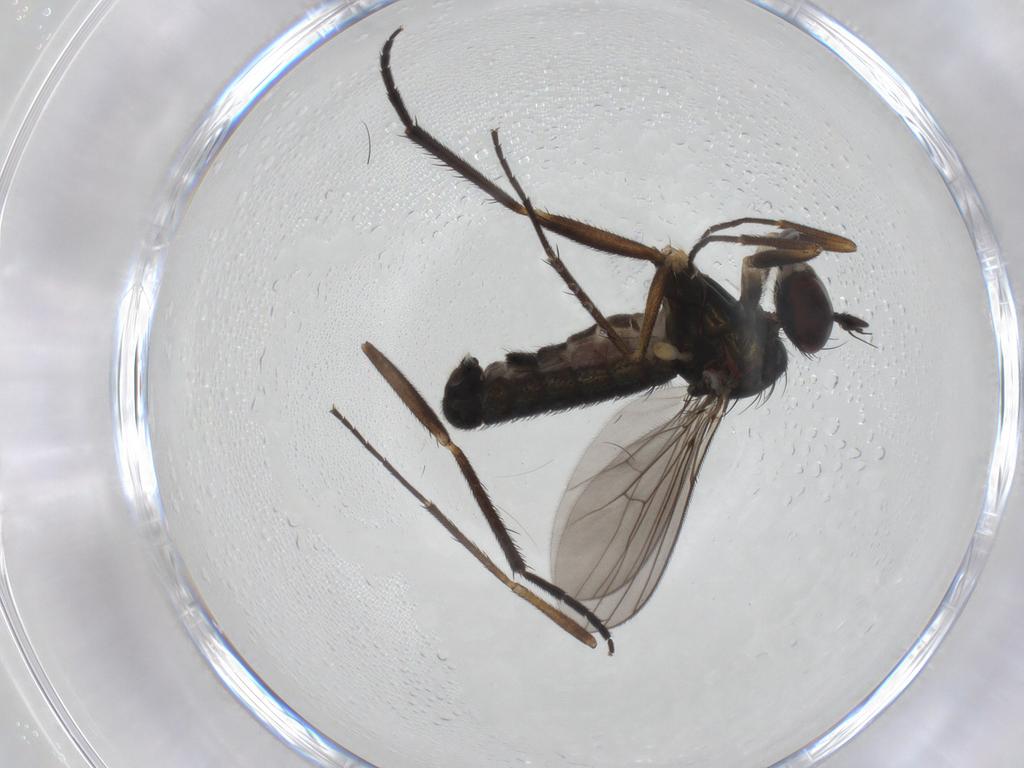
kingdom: Animalia
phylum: Arthropoda
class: Insecta
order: Diptera
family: Dolichopodidae
